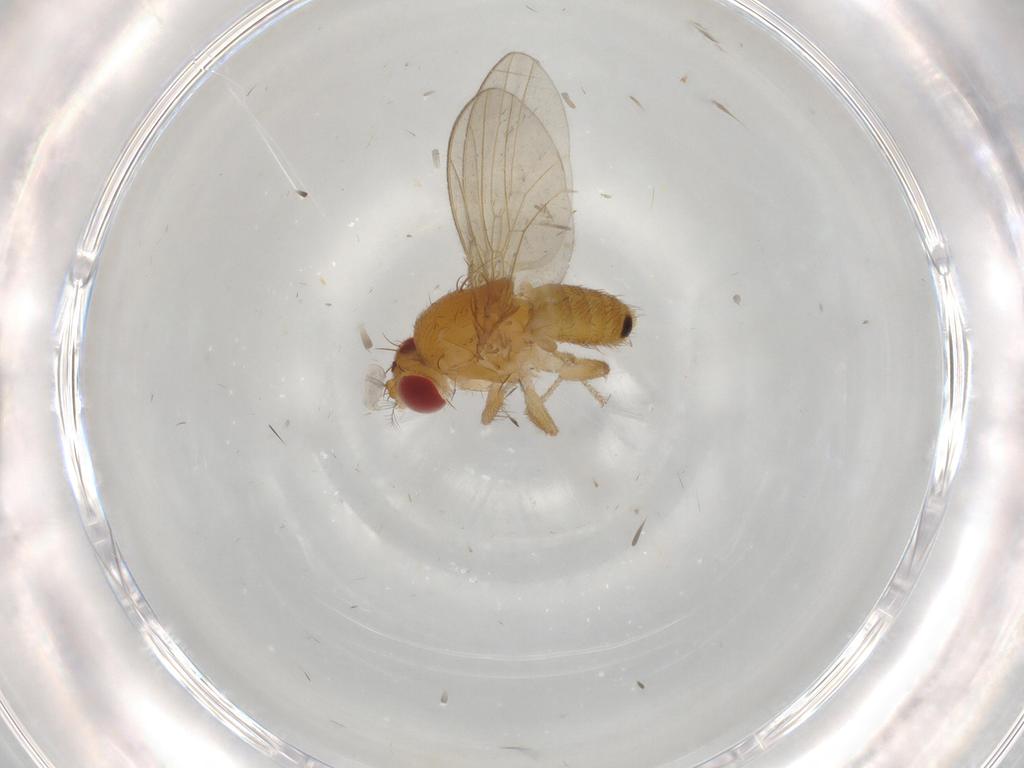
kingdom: Animalia
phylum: Arthropoda
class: Insecta
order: Diptera
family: Drosophilidae
